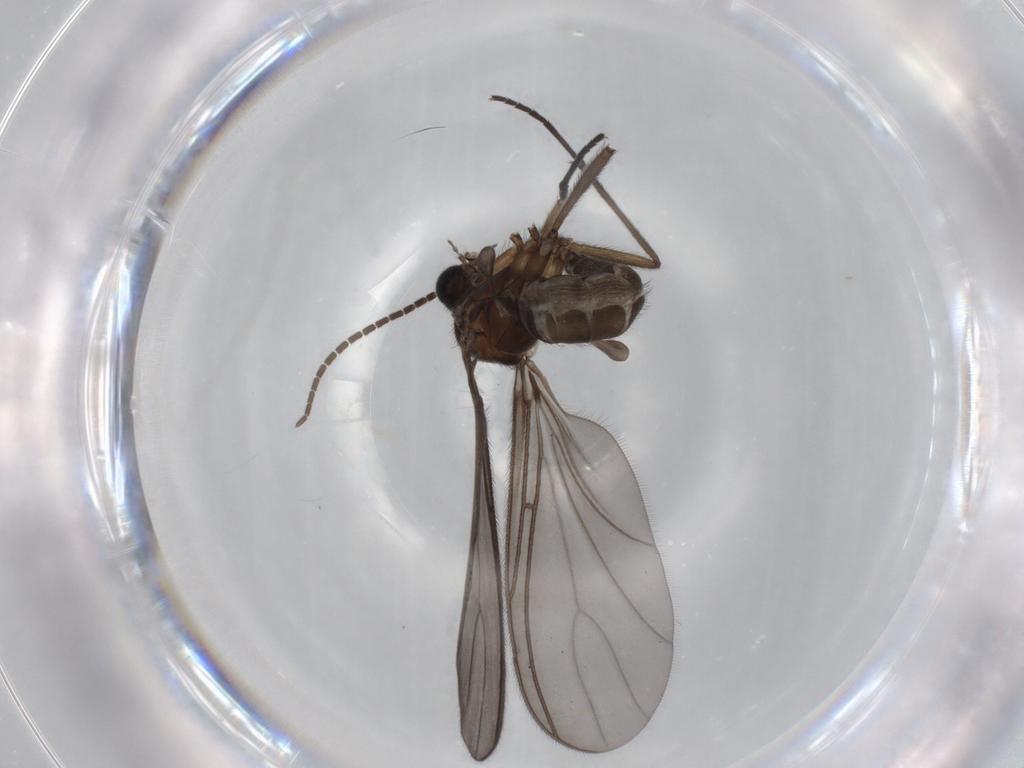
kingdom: Animalia
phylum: Arthropoda
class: Insecta
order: Diptera
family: Sciaridae
